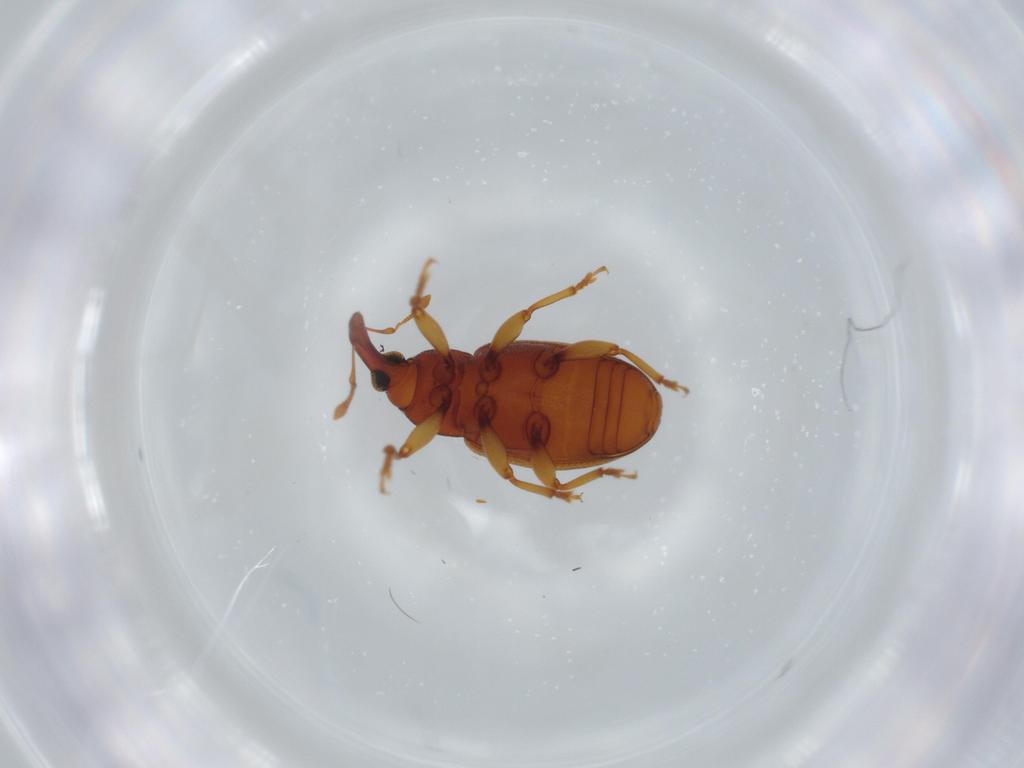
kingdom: Animalia
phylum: Arthropoda
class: Insecta
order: Coleoptera
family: Curculionidae
